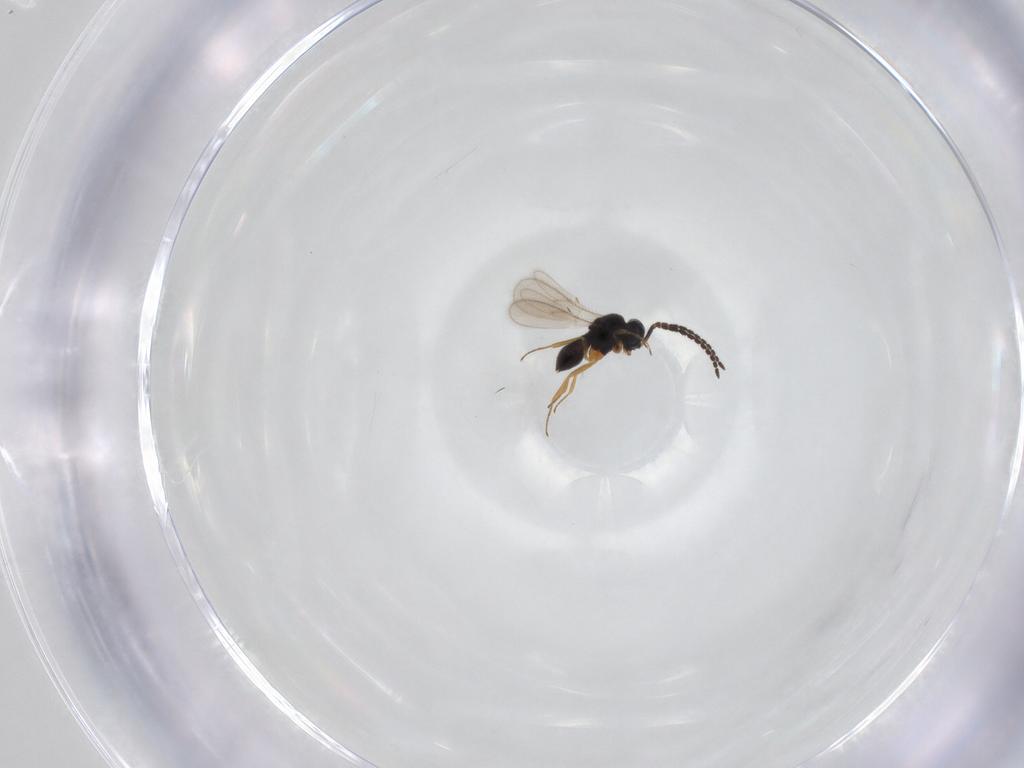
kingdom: Animalia
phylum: Arthropoda
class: Insecta
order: Hymenoptera
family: Scelionidae
